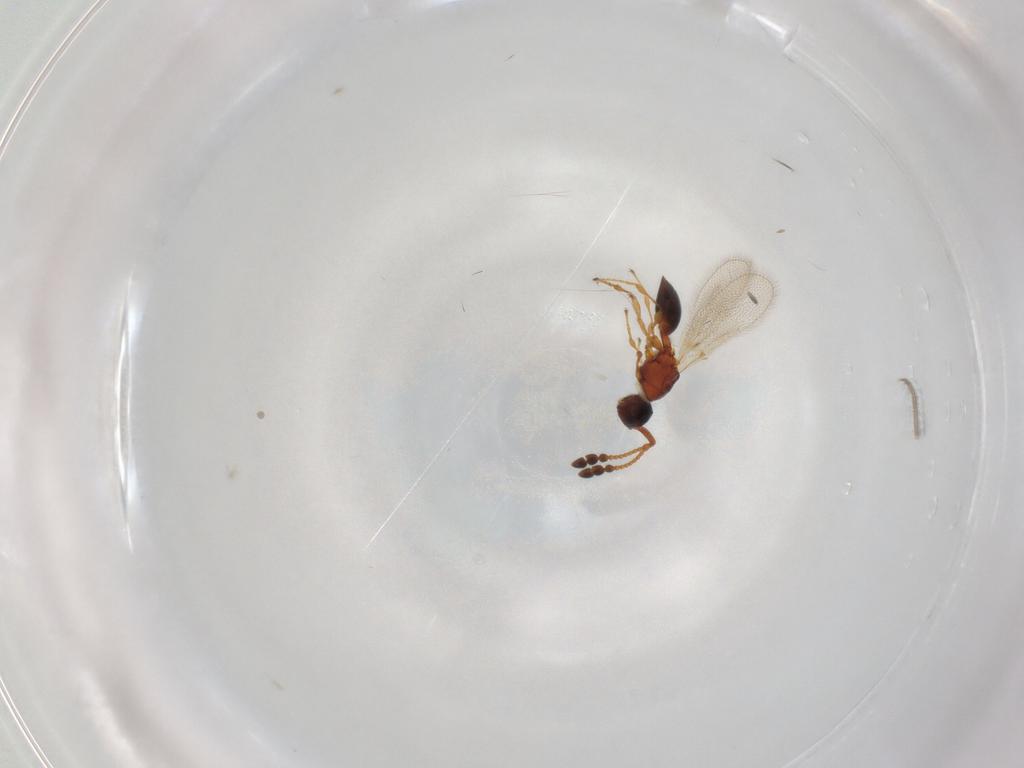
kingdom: Animalia
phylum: Arthropoda
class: Insecta
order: Hymenoptera
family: Diapriidae
